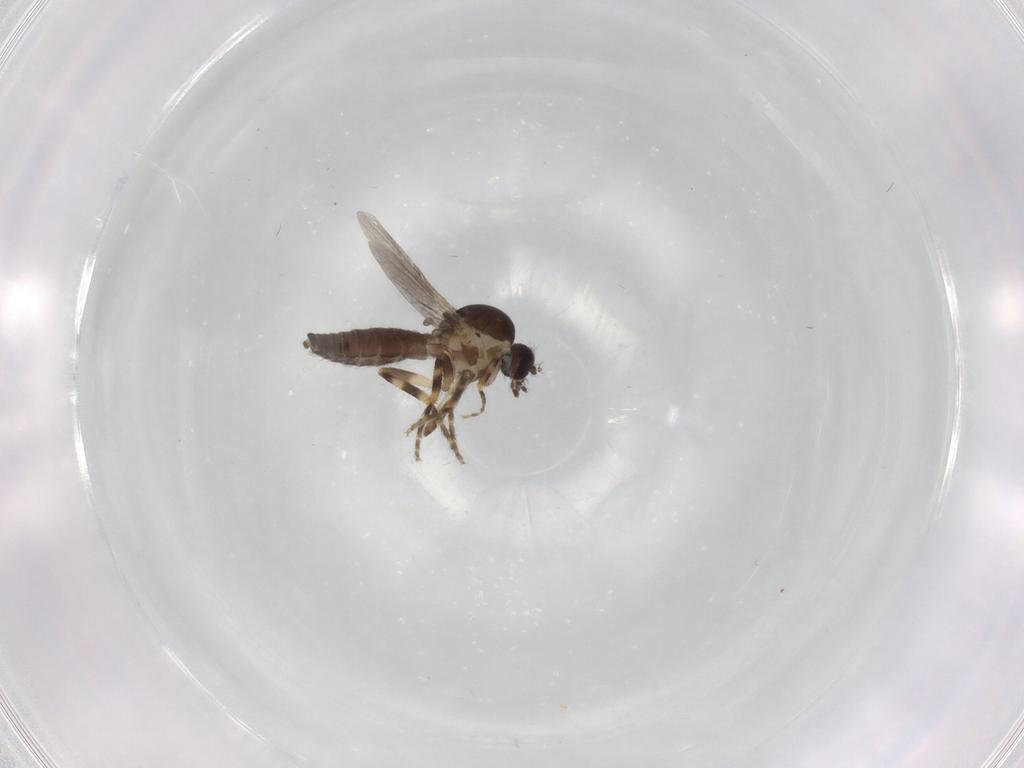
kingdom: Animalia
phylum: Arthropoda
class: Insecta
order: Diptera
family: Ceratopogonidae
